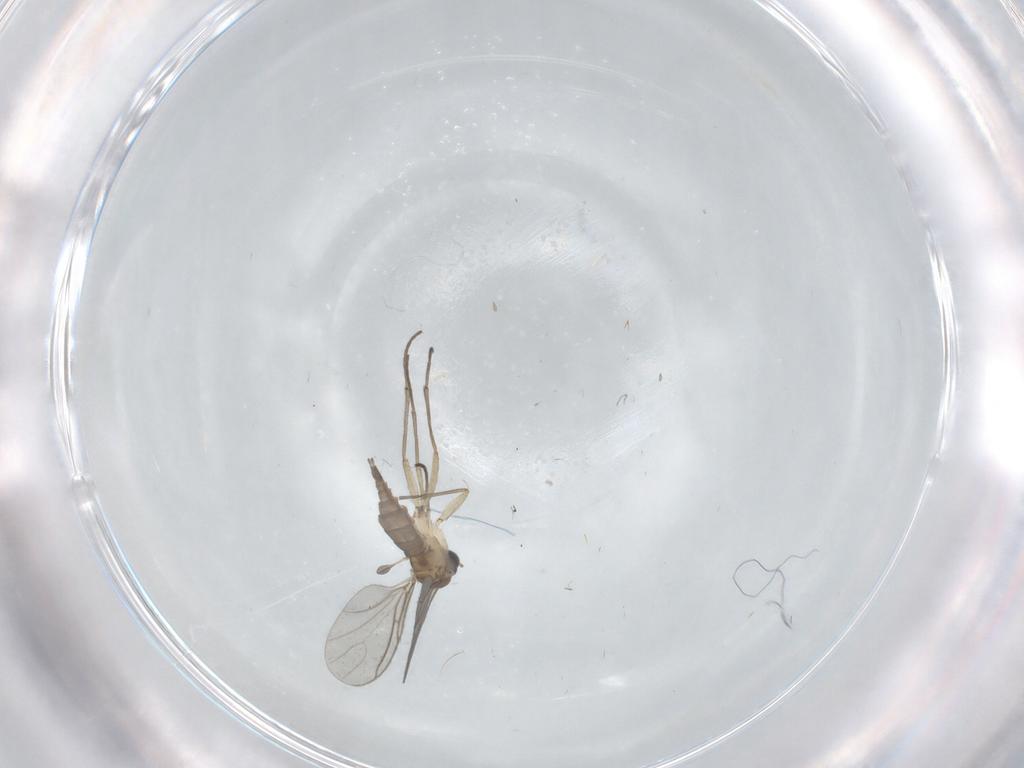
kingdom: Animalia
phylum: Arthropoda
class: Insecta
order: Diptera
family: Sciaridae
